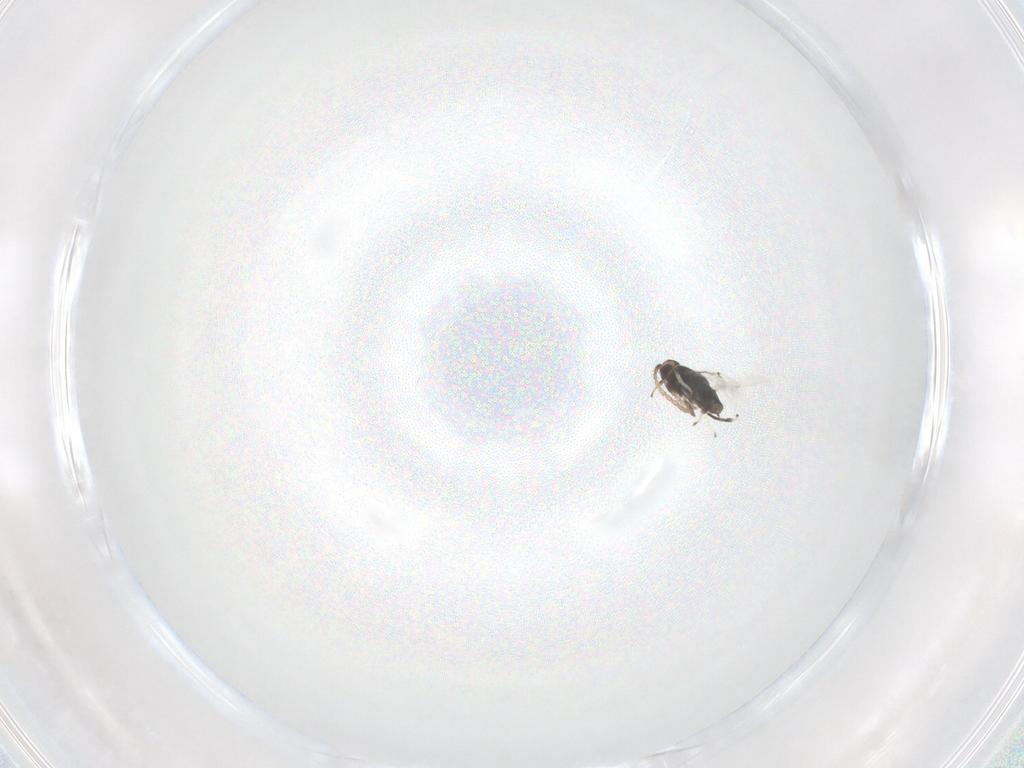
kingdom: Animalia
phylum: Arthropoda
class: Insecta
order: Hymenoptera
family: Encyrtidae
